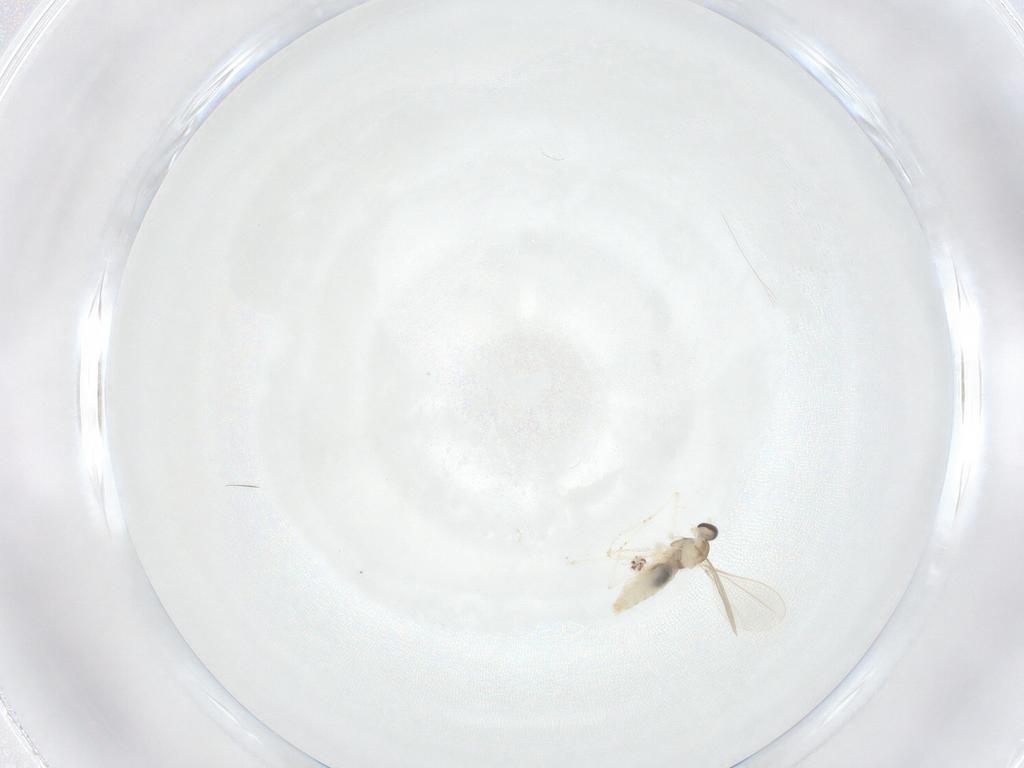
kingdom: Animalia
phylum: Arthropoda
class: Insecta
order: Diptera
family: Cecidomyiidae
